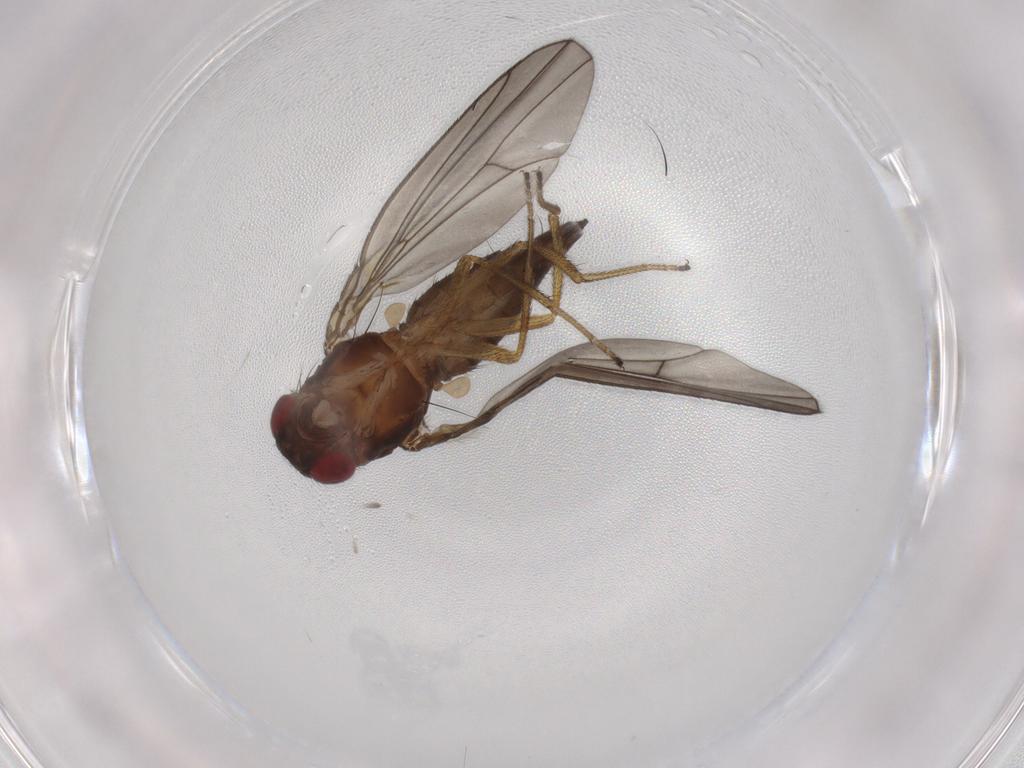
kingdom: Animalia
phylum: Arthropoda
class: Insecta
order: Diptera
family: Drosophilidae
